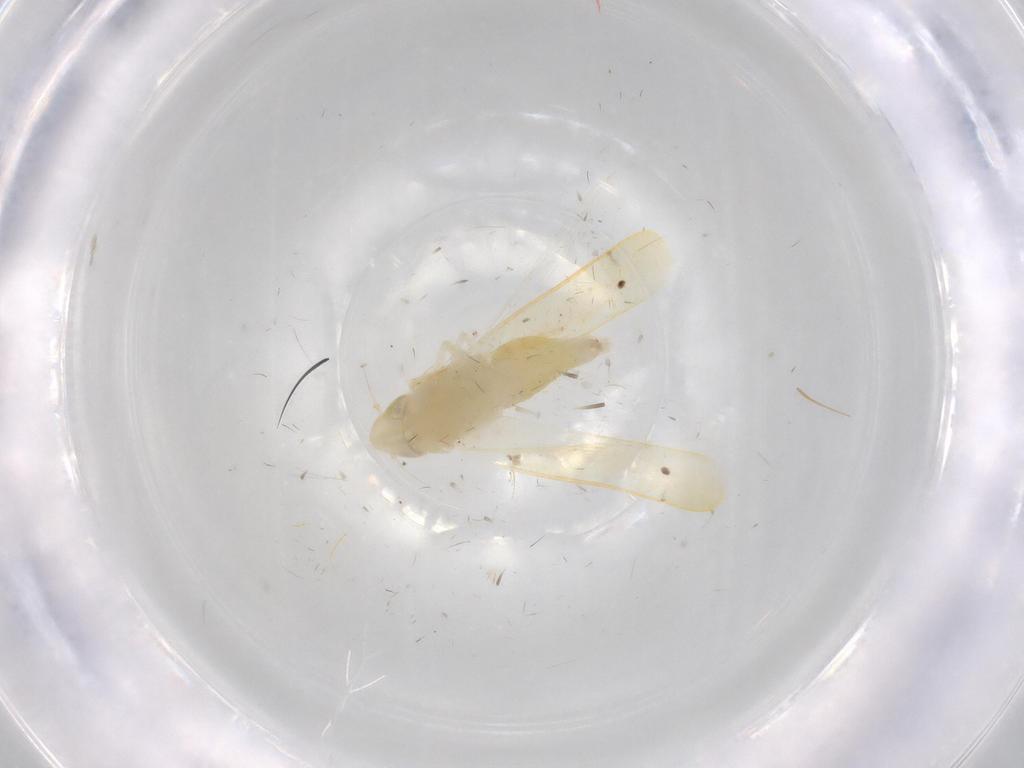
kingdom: Animalia
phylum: Arthropoda
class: Insecta
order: Hemiptera
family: Cicadellidae
